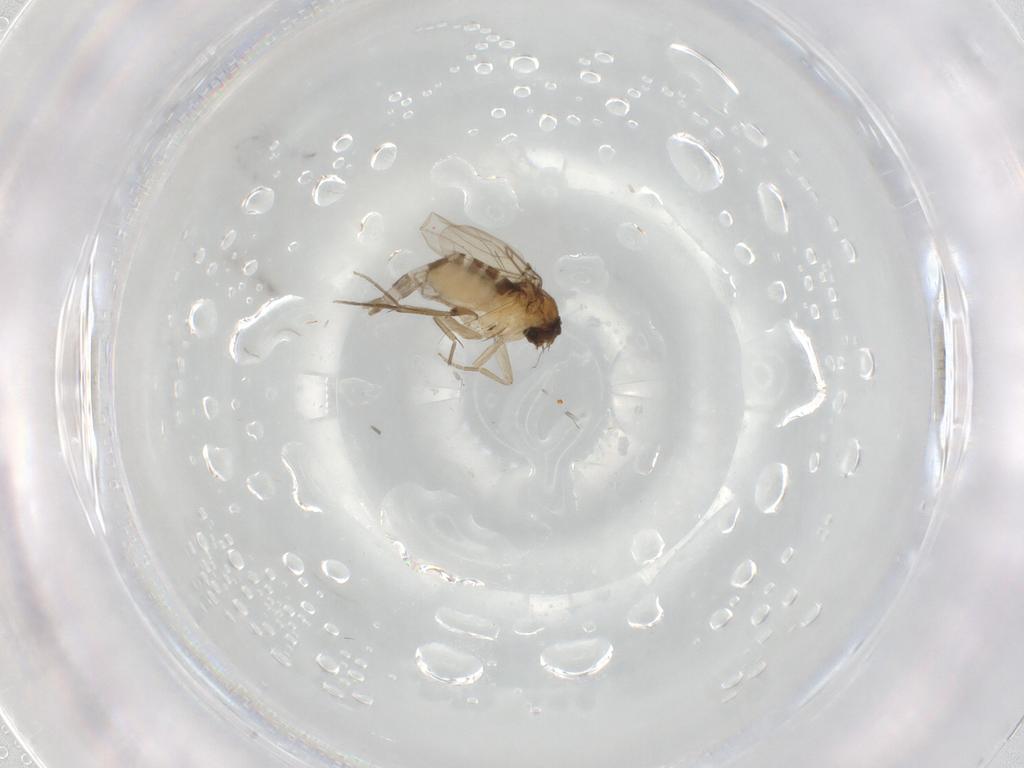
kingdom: Animalia
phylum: Arthropoda
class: Insecta
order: Diptera
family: Phoridae
